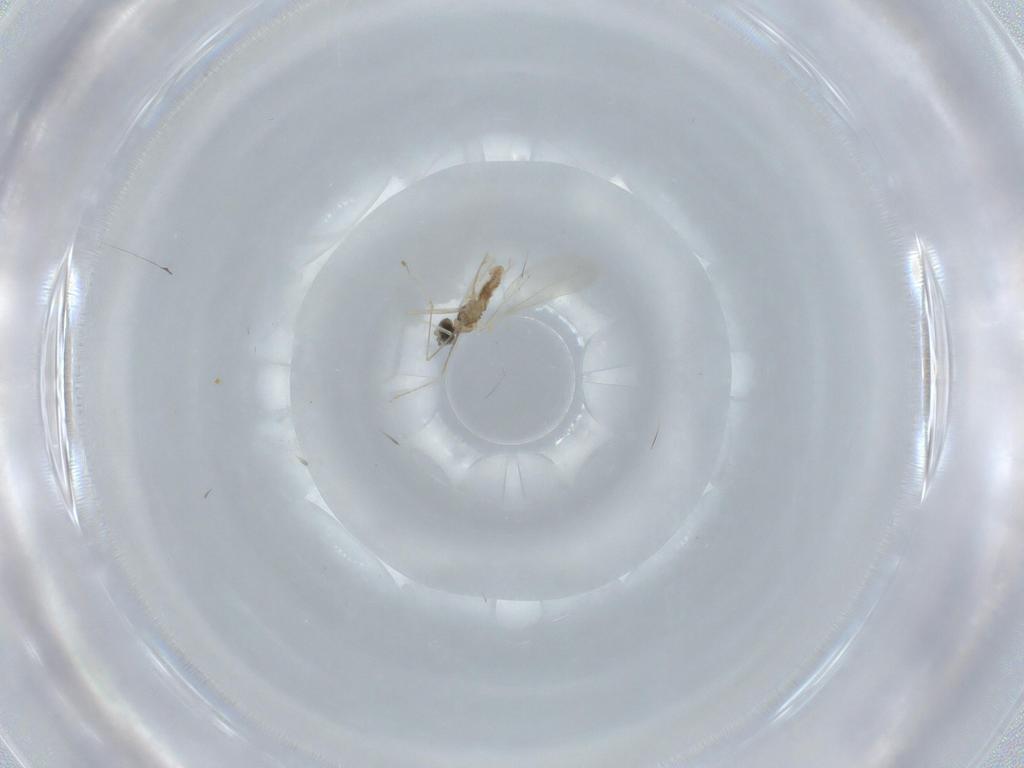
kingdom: Animalia
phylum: Arthropoda
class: Insecta
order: Diptera
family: Cecidomyiidae
